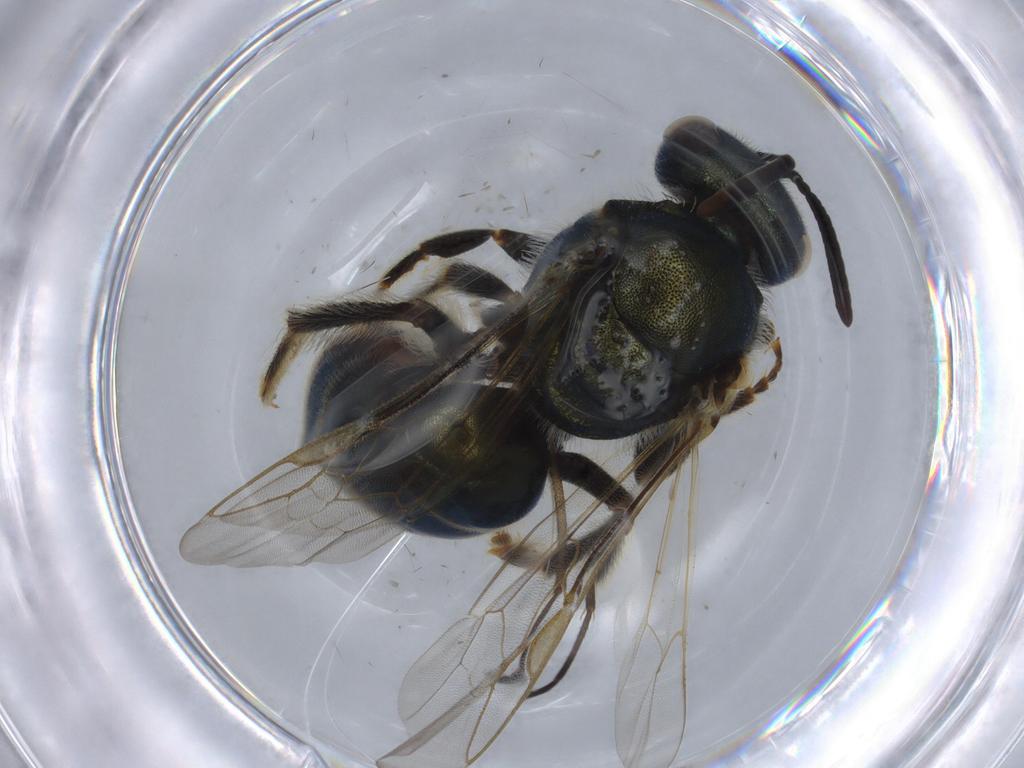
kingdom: Animalia
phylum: Arthropoda
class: Insecta
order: Hymenoptera
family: Halictidae
